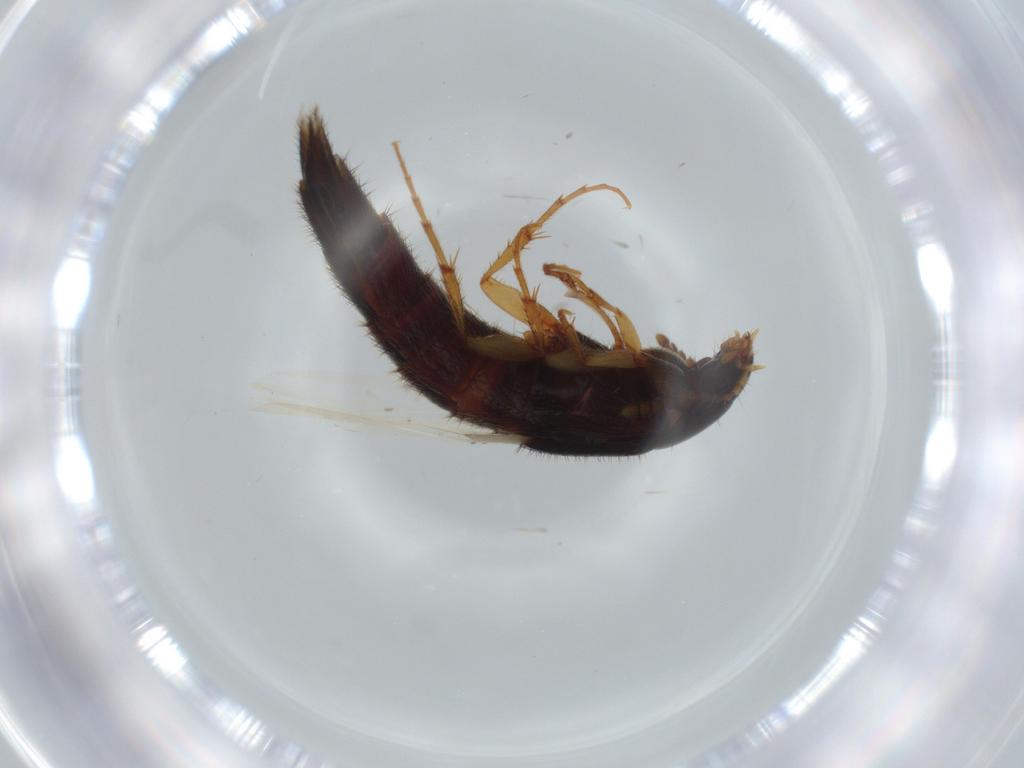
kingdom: Animalia
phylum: Arthropoda
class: Insecta
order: Coleoptera
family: Staphylinidae
